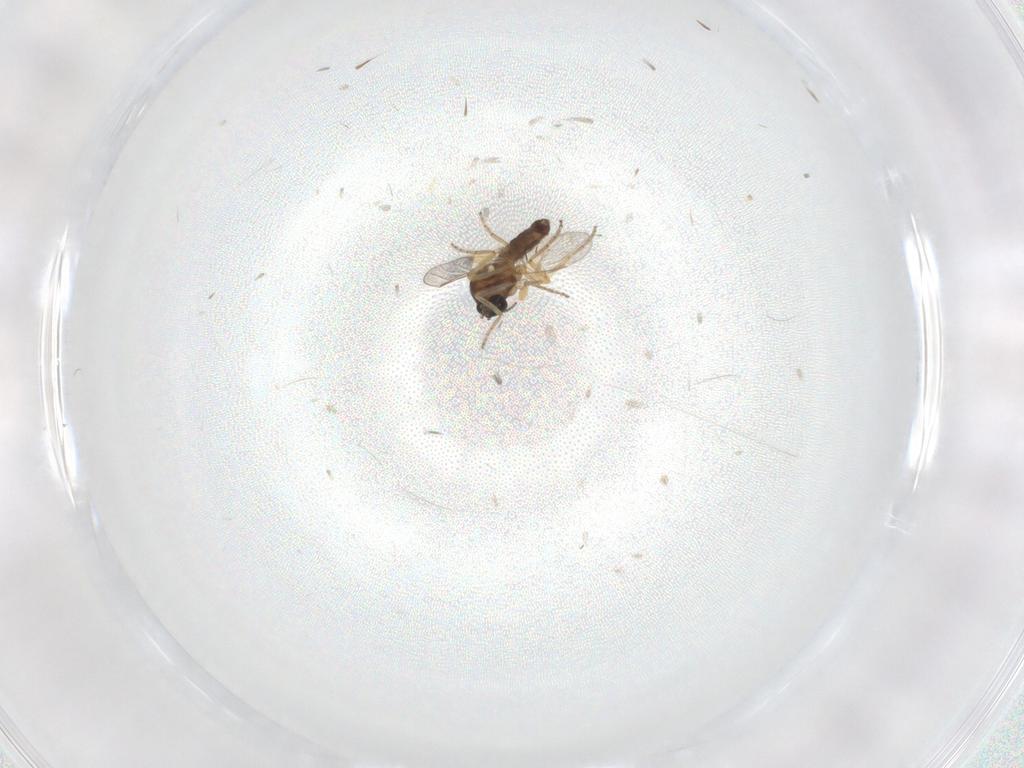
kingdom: Animalia
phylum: Arthropoda
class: Insecta
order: Diptera
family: Ceratopogonidae
